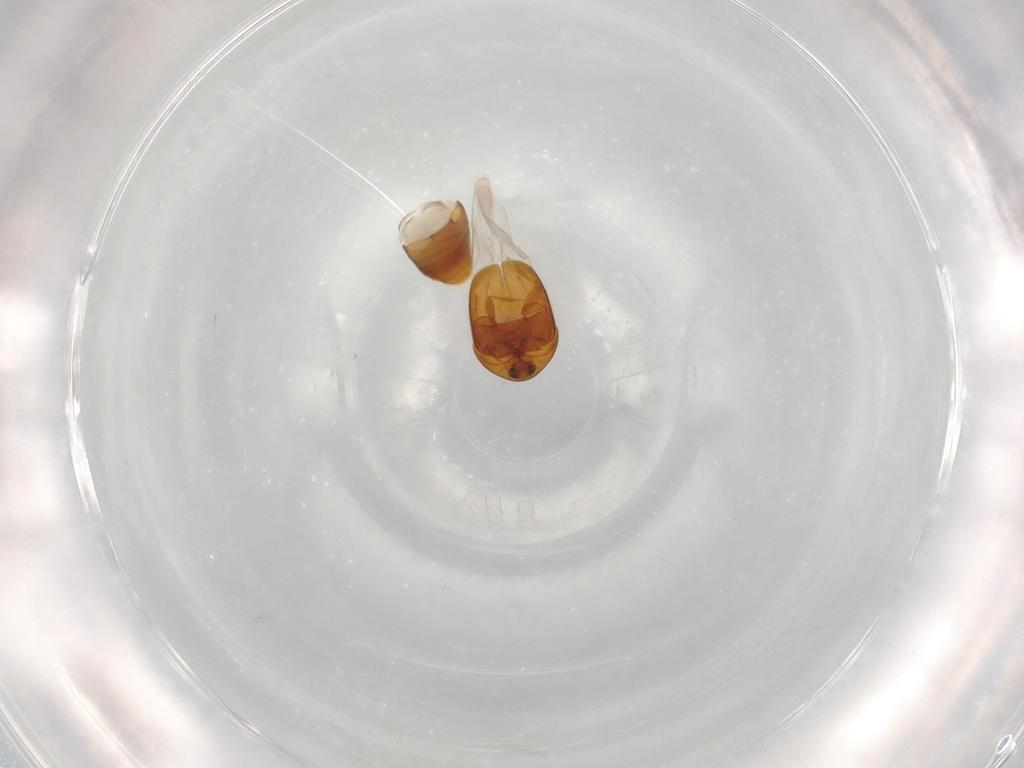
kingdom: Animalia
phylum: Arthropoda
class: Insecta
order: Coleoptera
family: Corylophidae
